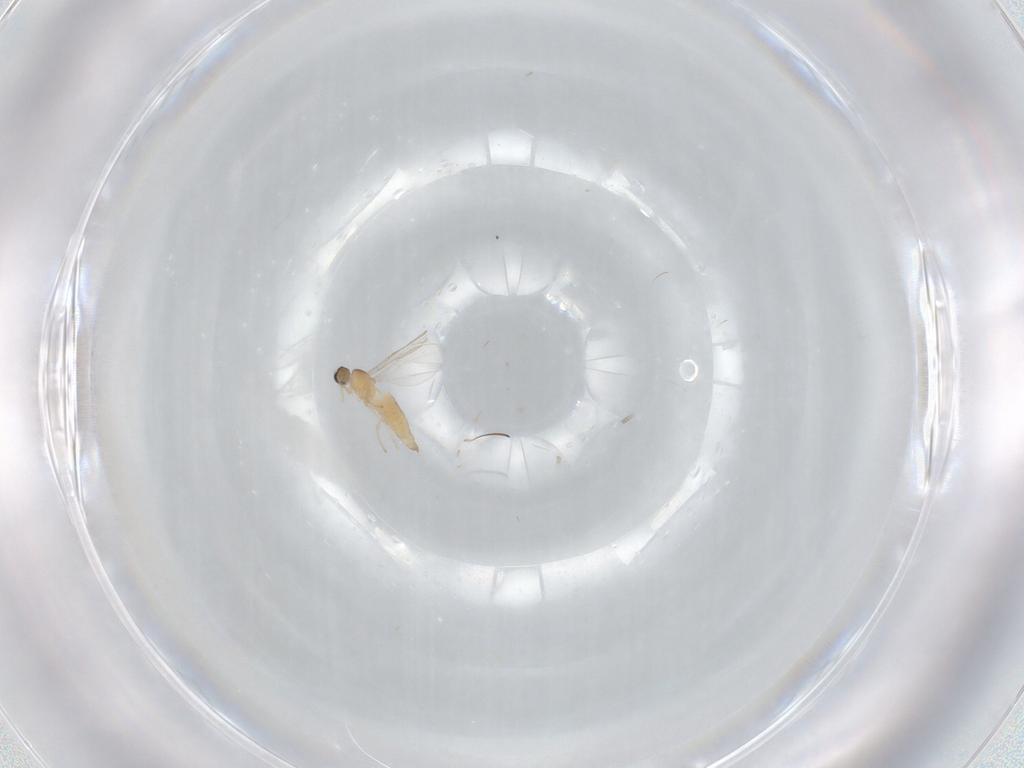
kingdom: Animalia
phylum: Arthropoda
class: Insecta
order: Diptera
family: Cecidomyiidae
